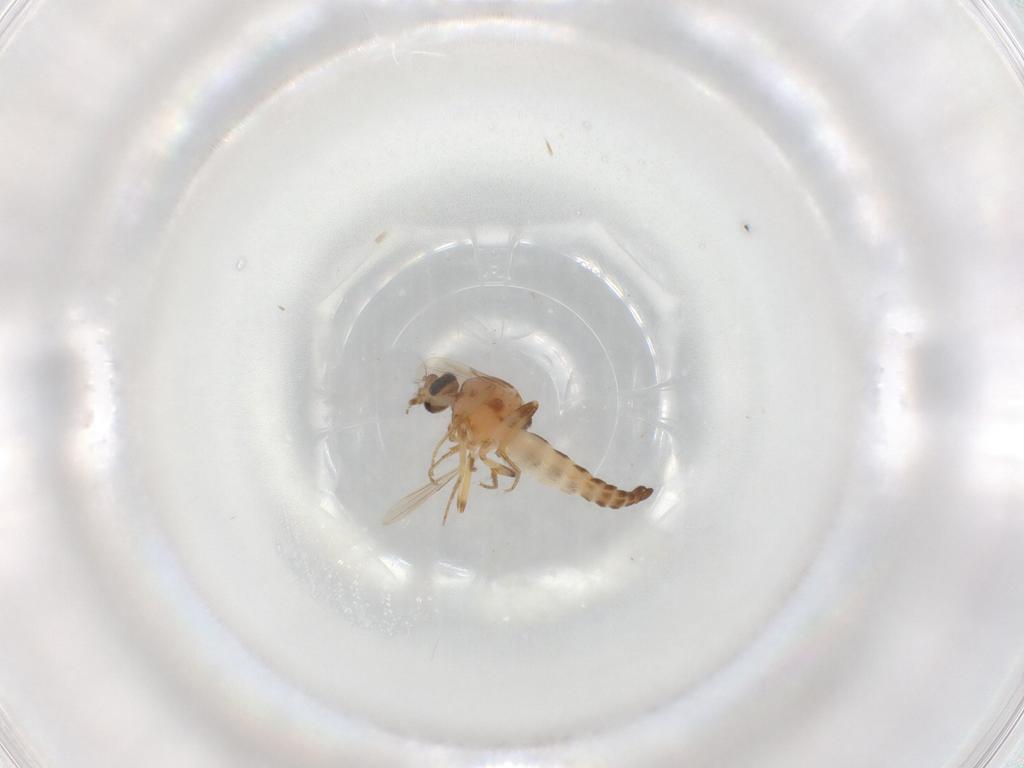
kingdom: Animalia
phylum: Arthropoda
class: Insecta
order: Diptera
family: Ceratopogonidae
